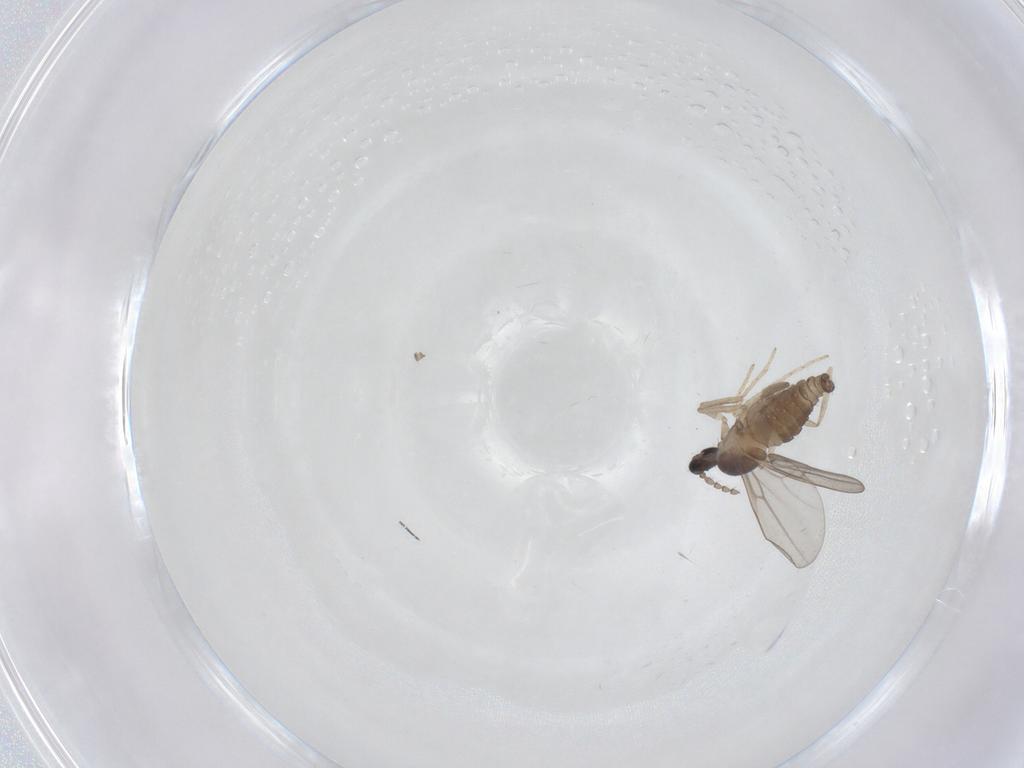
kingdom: Animalia
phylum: Arthropoda
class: Insecta
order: Diptera
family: Cecidomyiidae
